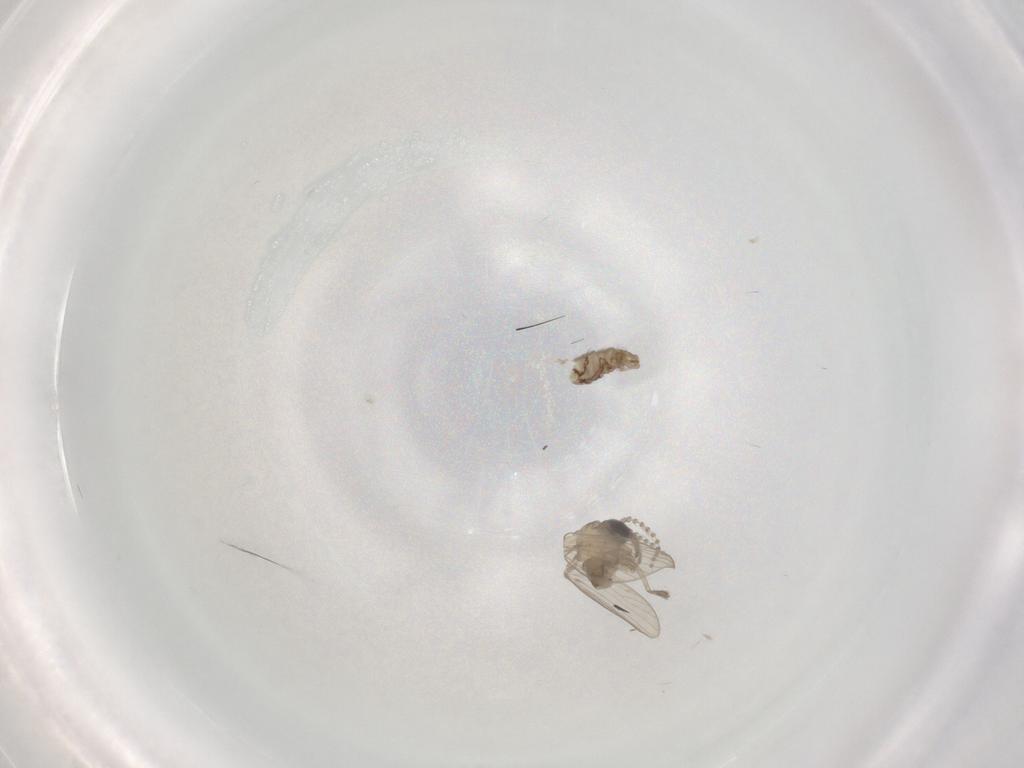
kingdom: Animalia
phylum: Arthropoda
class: Insecta
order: Diptera
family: Psychodidae
